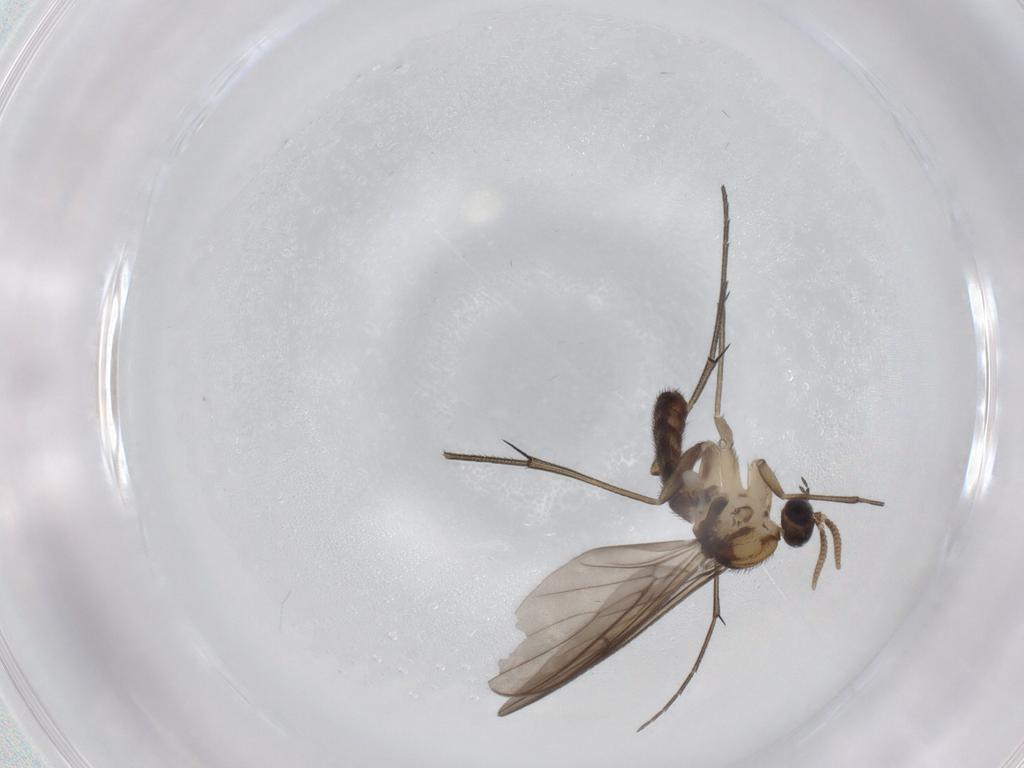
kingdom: Animalia
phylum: Arthropoda
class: Insecta
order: Diptera
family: Keroplatidae
